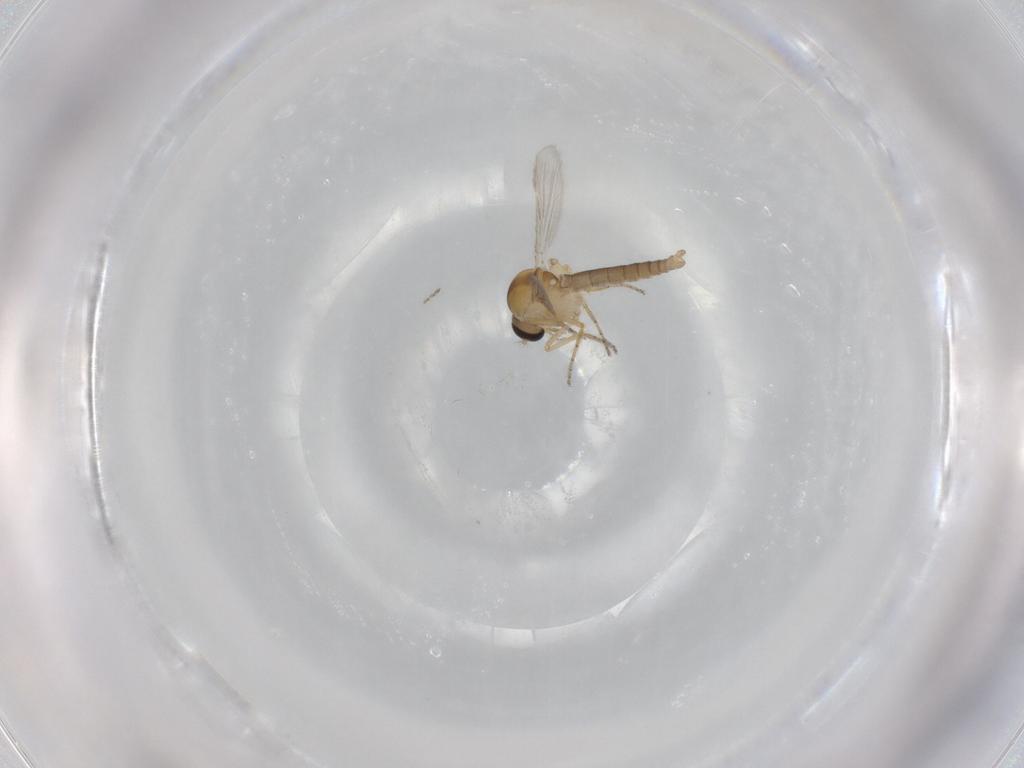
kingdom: Animalia
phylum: Arthropoda
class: Insecta
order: Diptera
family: Ceratopogonidae
